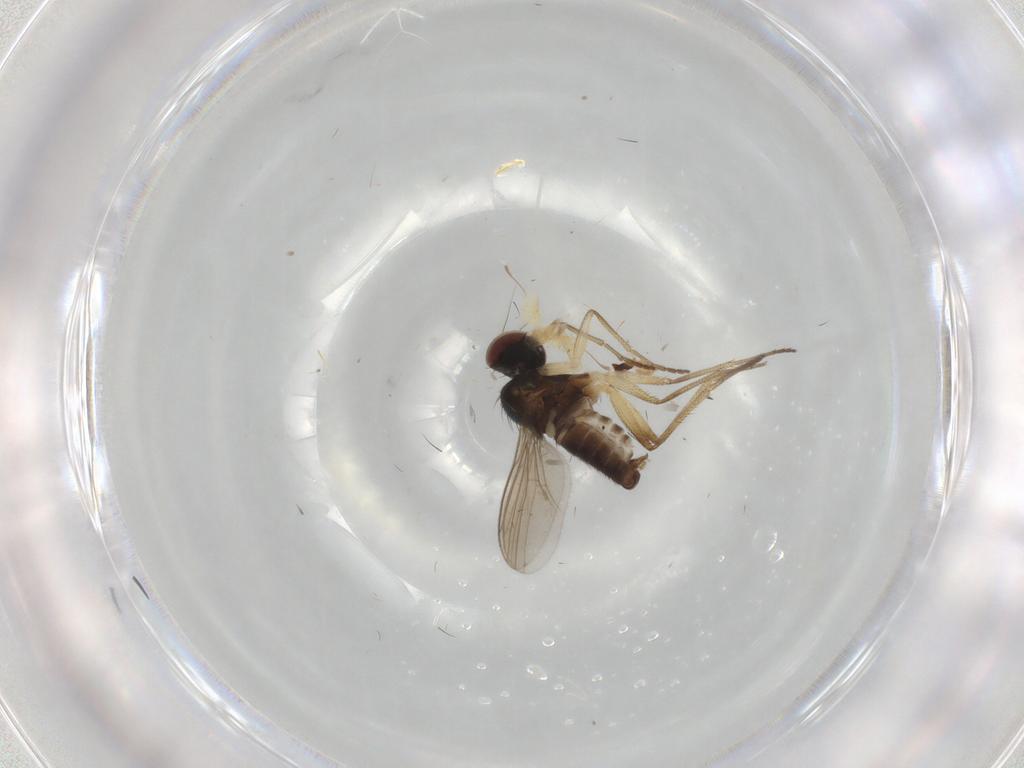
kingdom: Animalia
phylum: Arthropoda
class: Insecta
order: Diptera
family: Dolichopodidae
